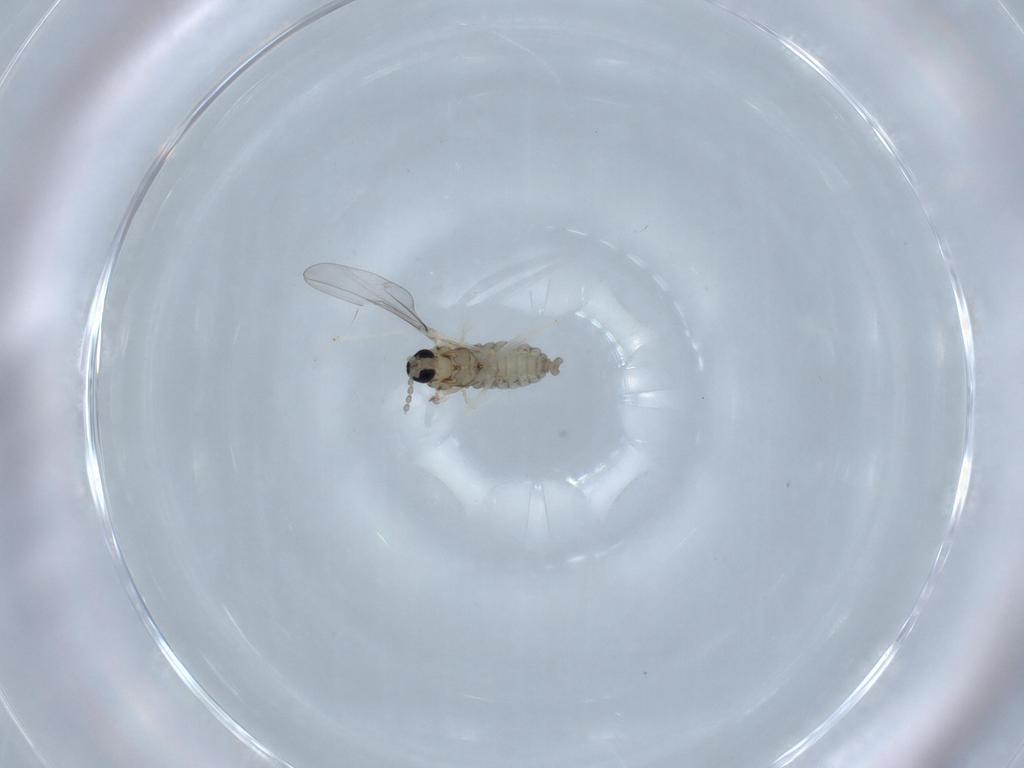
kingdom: Animalia
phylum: Arthropoda
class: Insecta
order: Diptera
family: Cecidomyiidae
